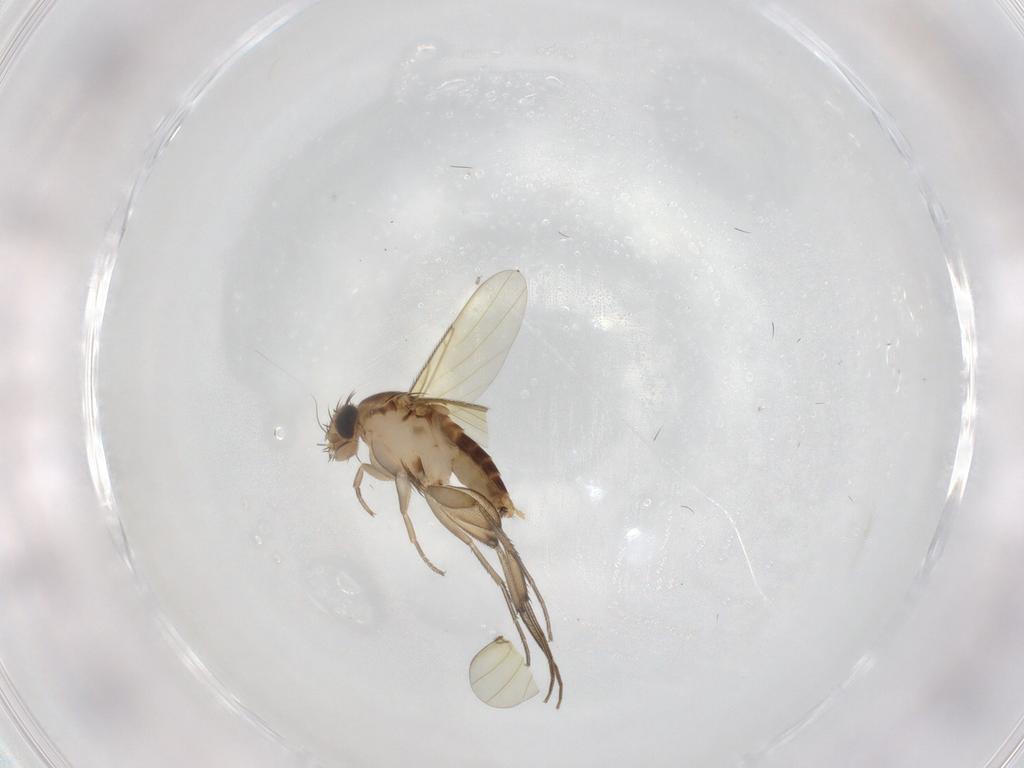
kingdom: Animalia
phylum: Arthropoda
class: Insecta
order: Diptera
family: Phoridae
